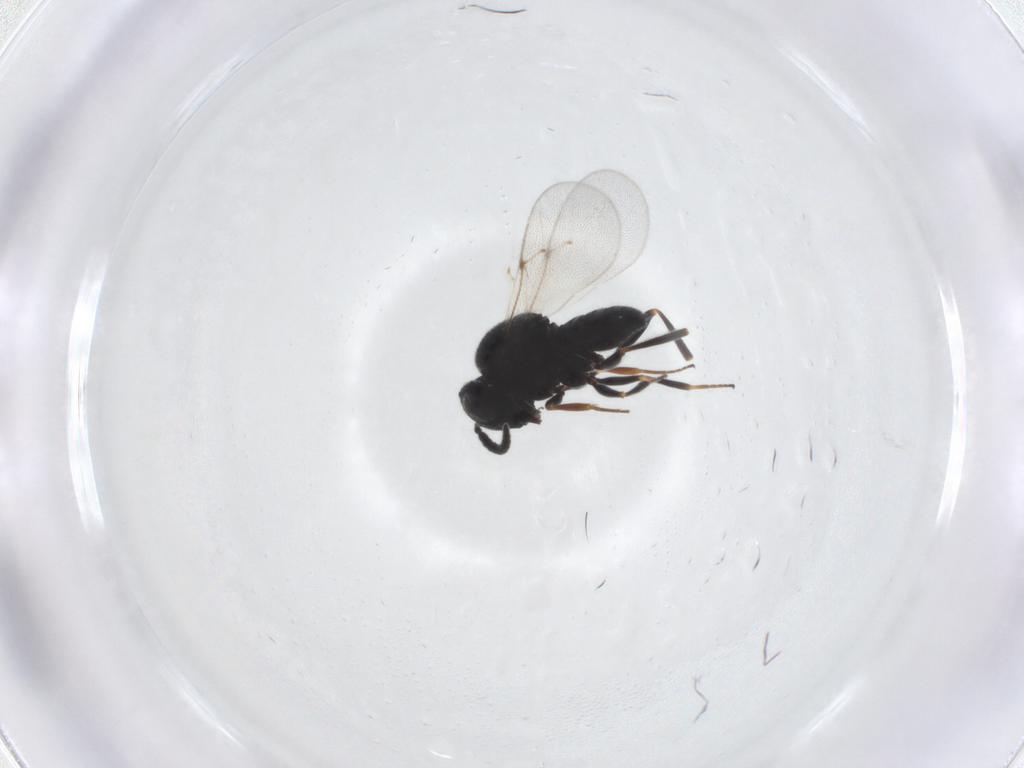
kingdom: Animalia
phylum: Arthropoda
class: Insecta
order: Hymenoptera
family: Scelionidae
